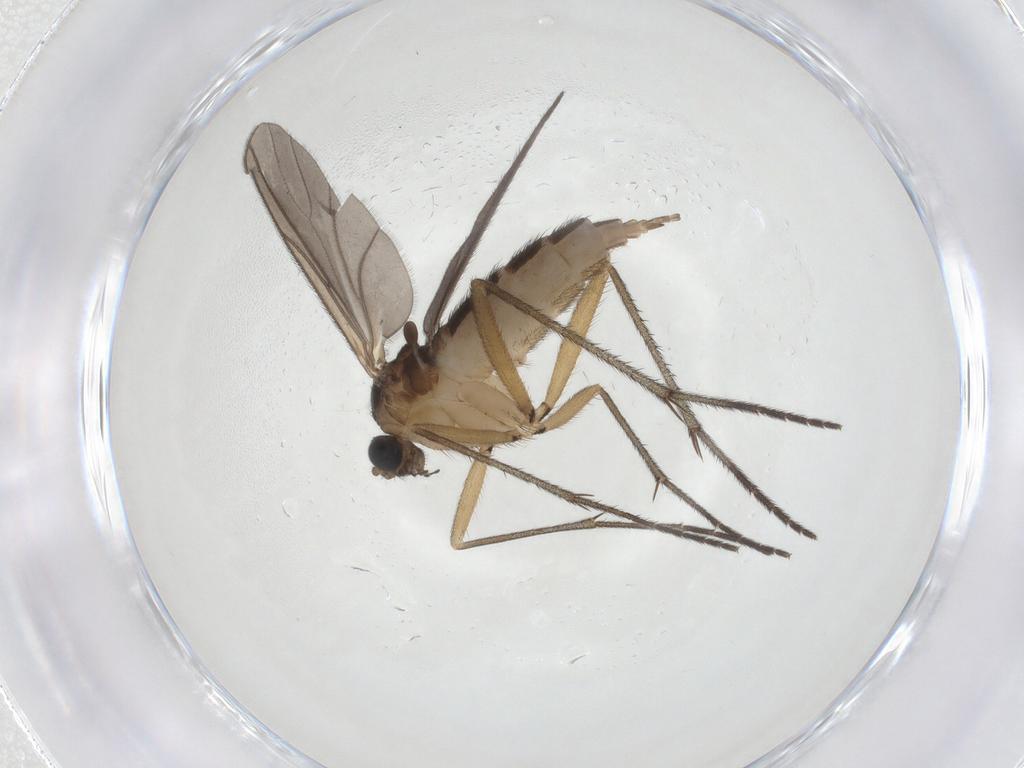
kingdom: Animalia
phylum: Arthropoda
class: Insecta
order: Diptera
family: Sciaridae
